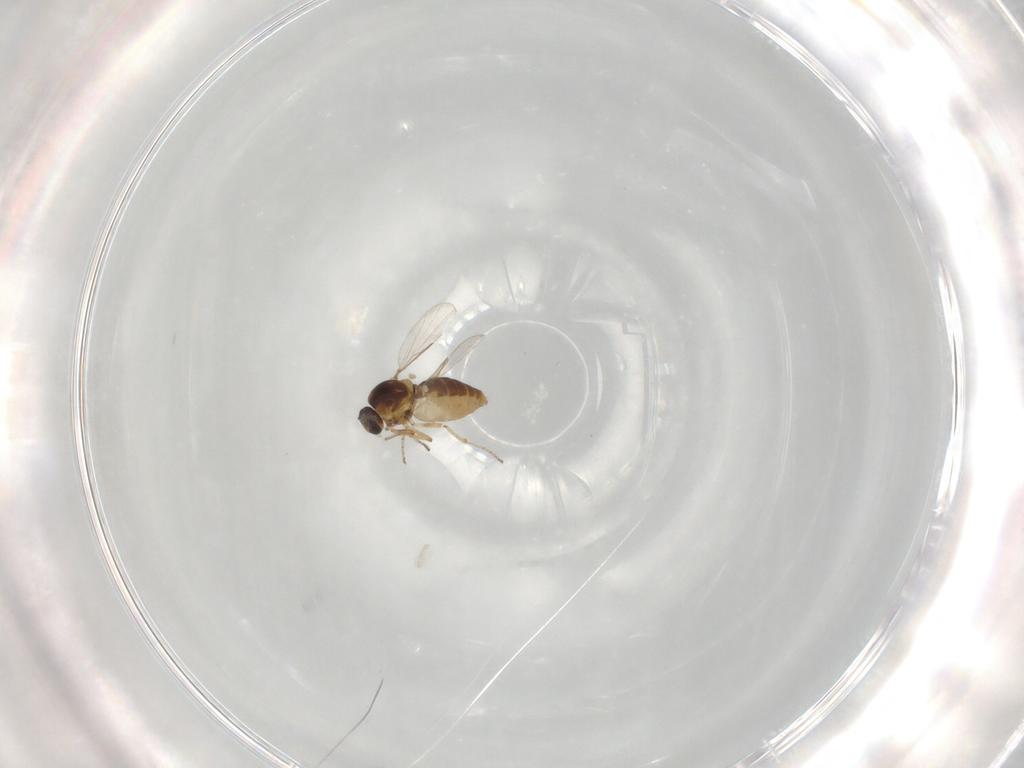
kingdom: Animalia
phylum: Arthropoda
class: Insecta
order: Diptera
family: Ceratopogonidae
